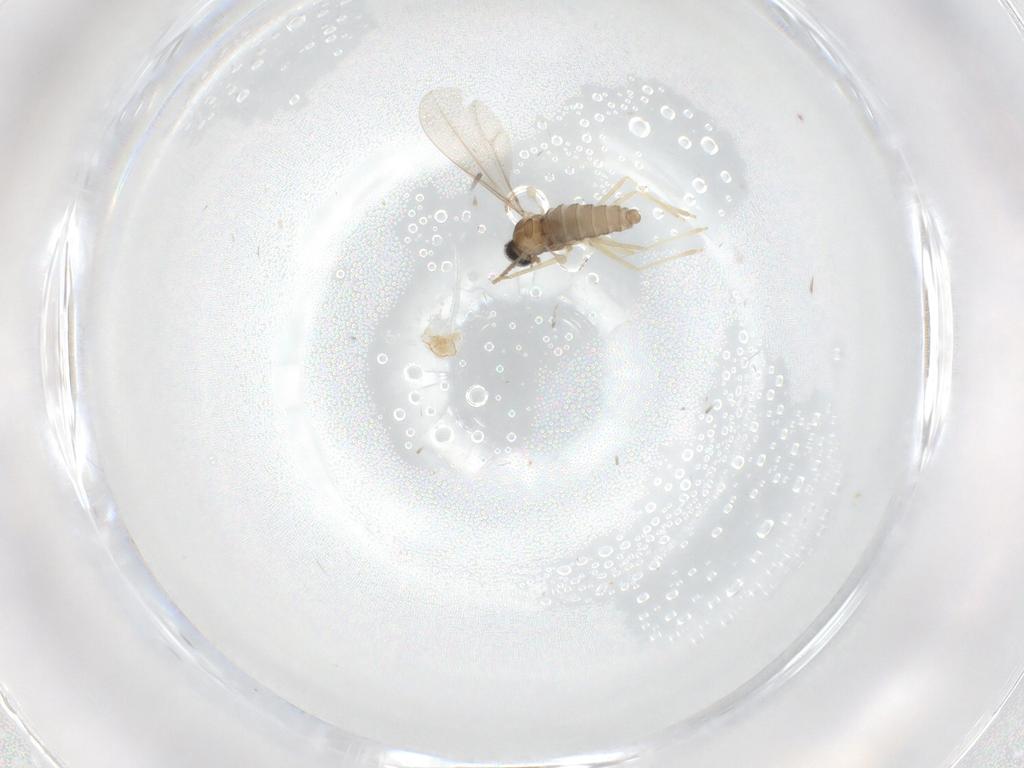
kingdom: Animalia
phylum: Arthropoda
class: Insecta
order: Diptera
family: Cecidomyiidae
